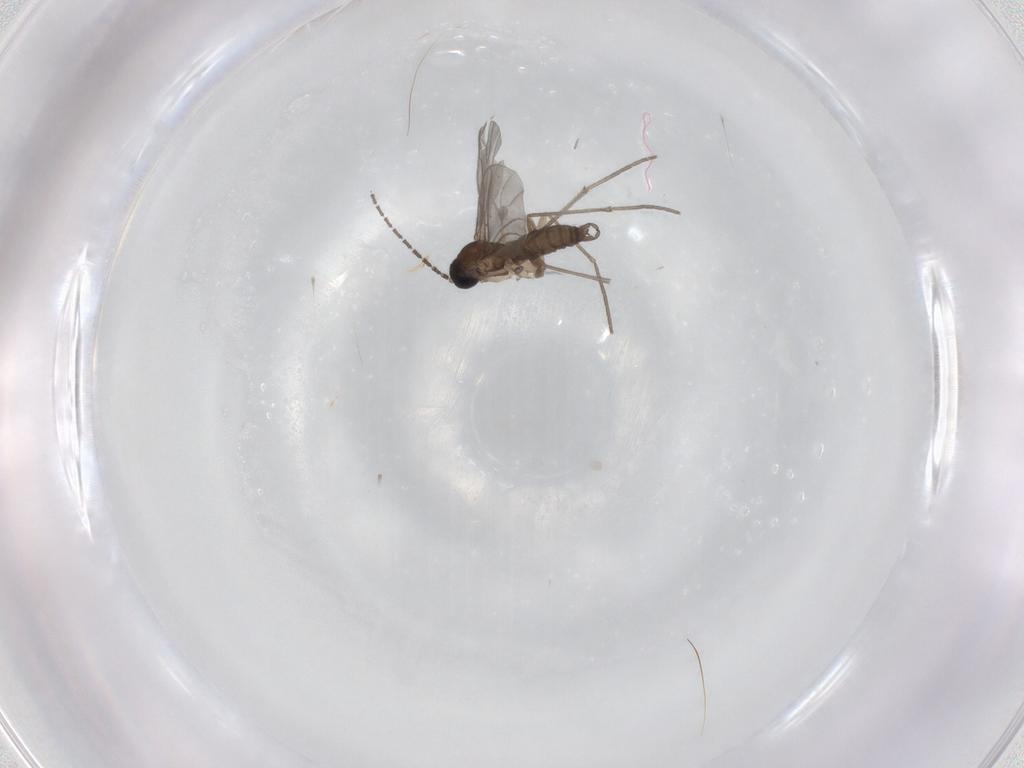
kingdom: Animalia
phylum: Arthropoda
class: Insecta
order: Diptera
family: Sciaridae
